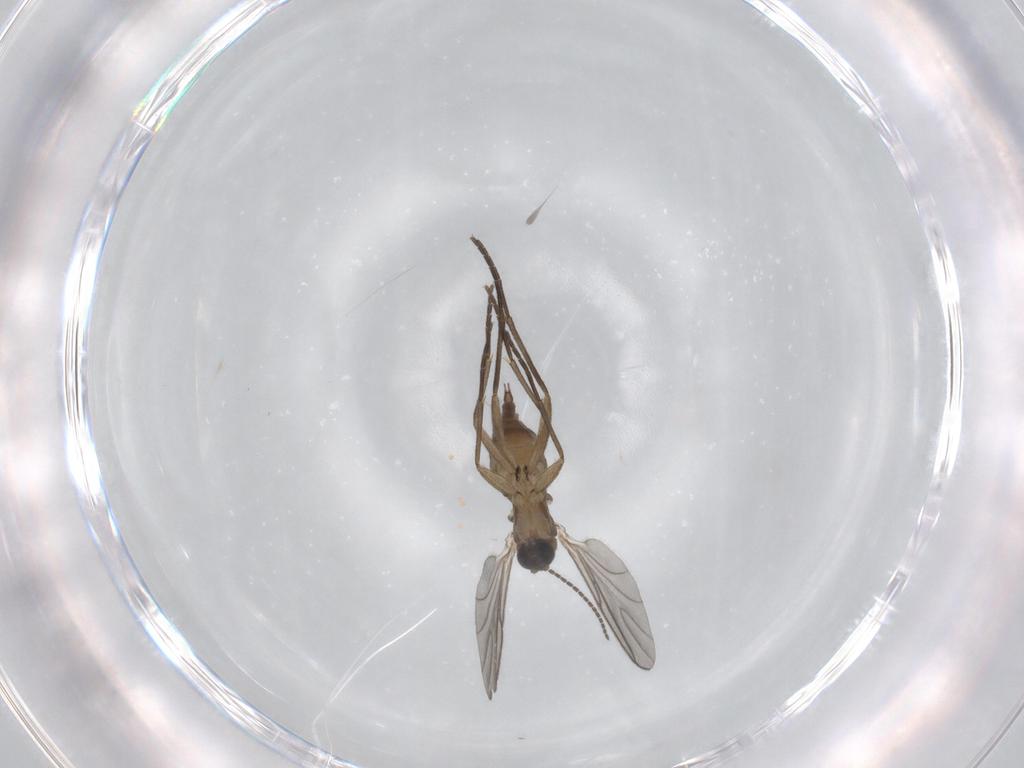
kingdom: Animalia
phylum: Arthropoda
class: Insecta
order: Diptera
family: Sciaridae
